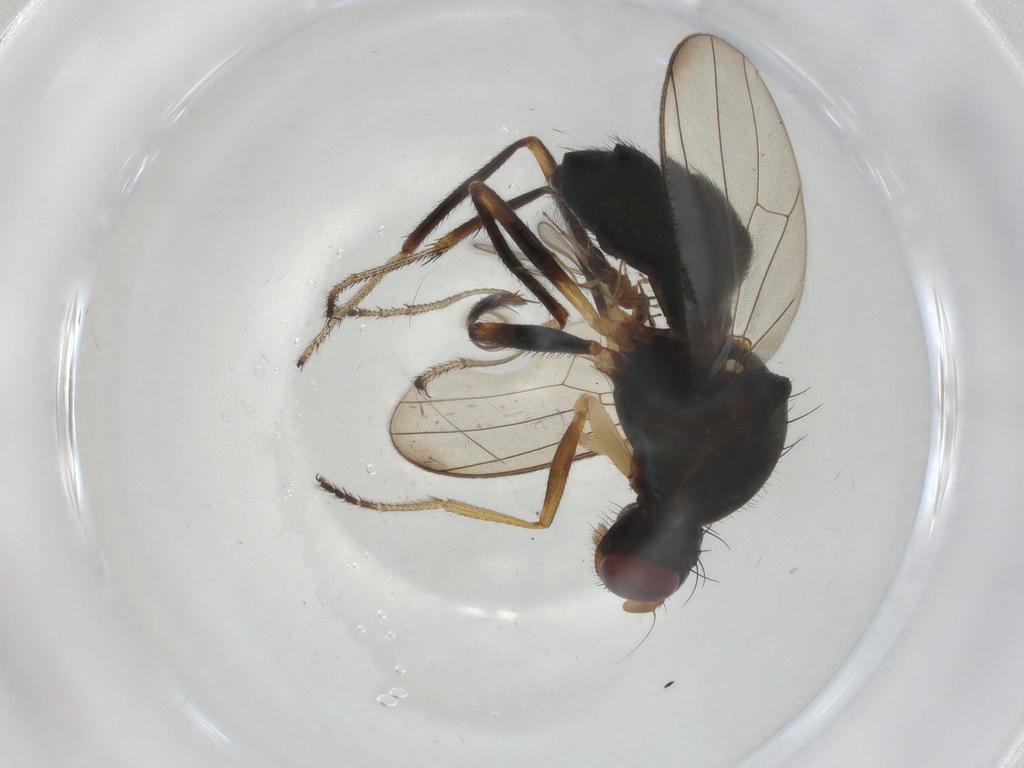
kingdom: Animalia
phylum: Arthropoda
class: Insecta
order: Diptera
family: Sepsidae
